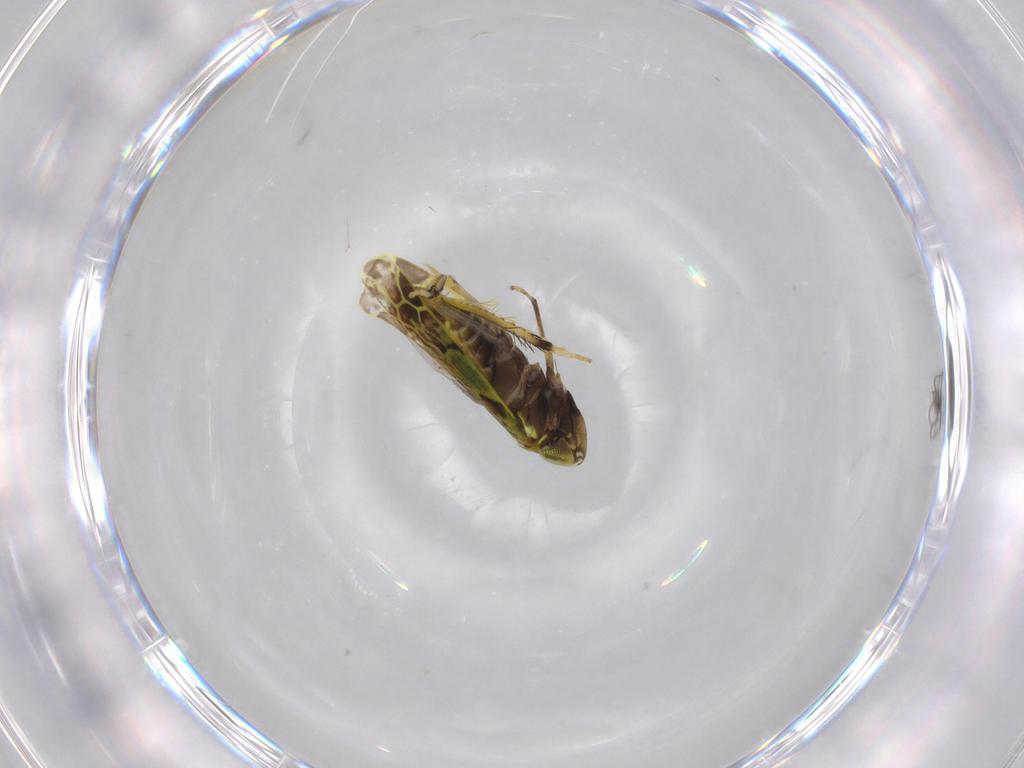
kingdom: Animalia
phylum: Arthropoda
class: Insecta
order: Hemiptera
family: Cicadellidae
